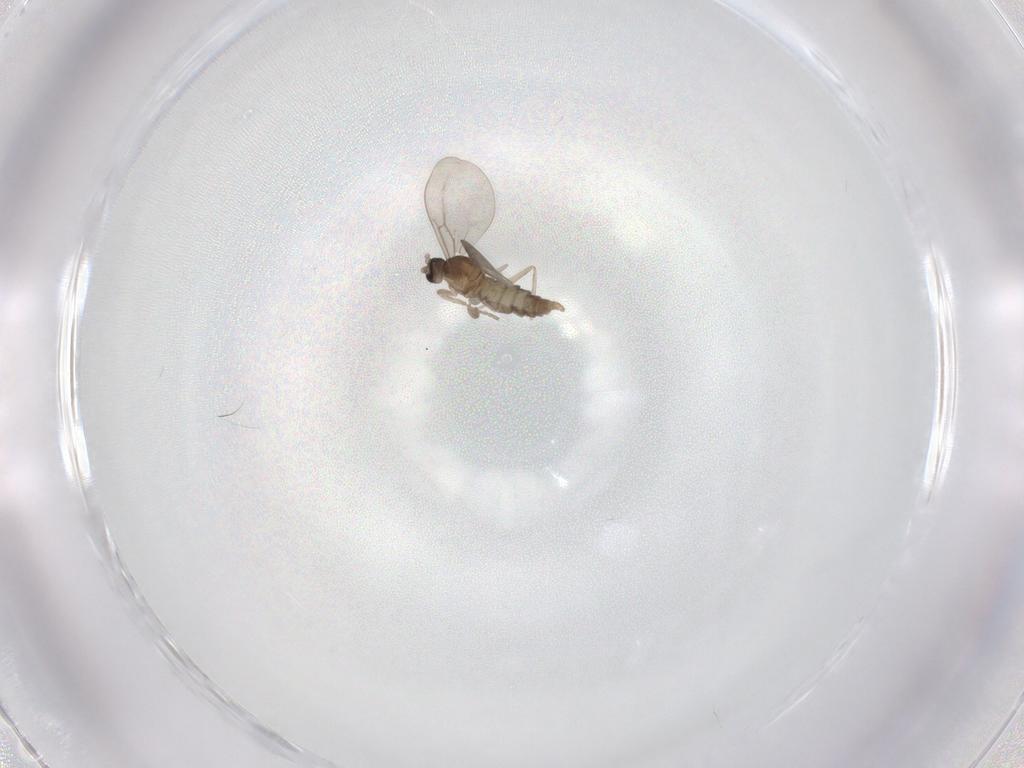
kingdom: Animalia
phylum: Arthropoda
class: Insecta
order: Diptera
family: Cecidomyiidae
